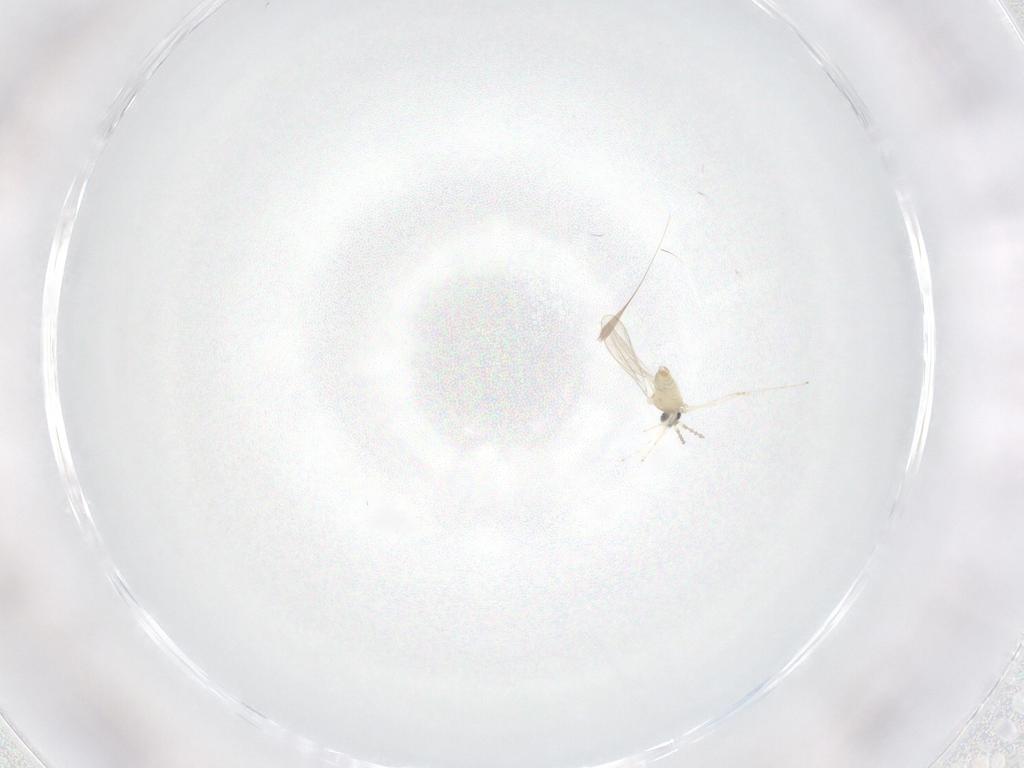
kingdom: Animalia
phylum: Arthropoda
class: Insecta
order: Diptera
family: Cecidomyiidae
